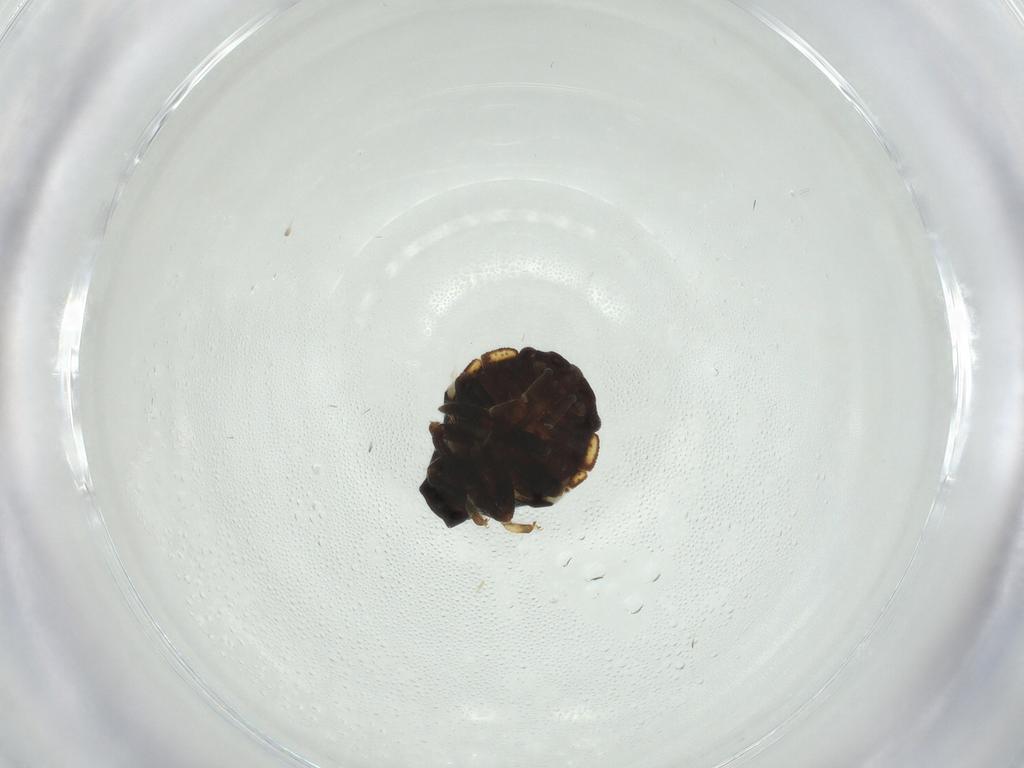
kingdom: Animalia
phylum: Arthropoda
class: Insecta
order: Hemiptera
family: Pentatomidae
